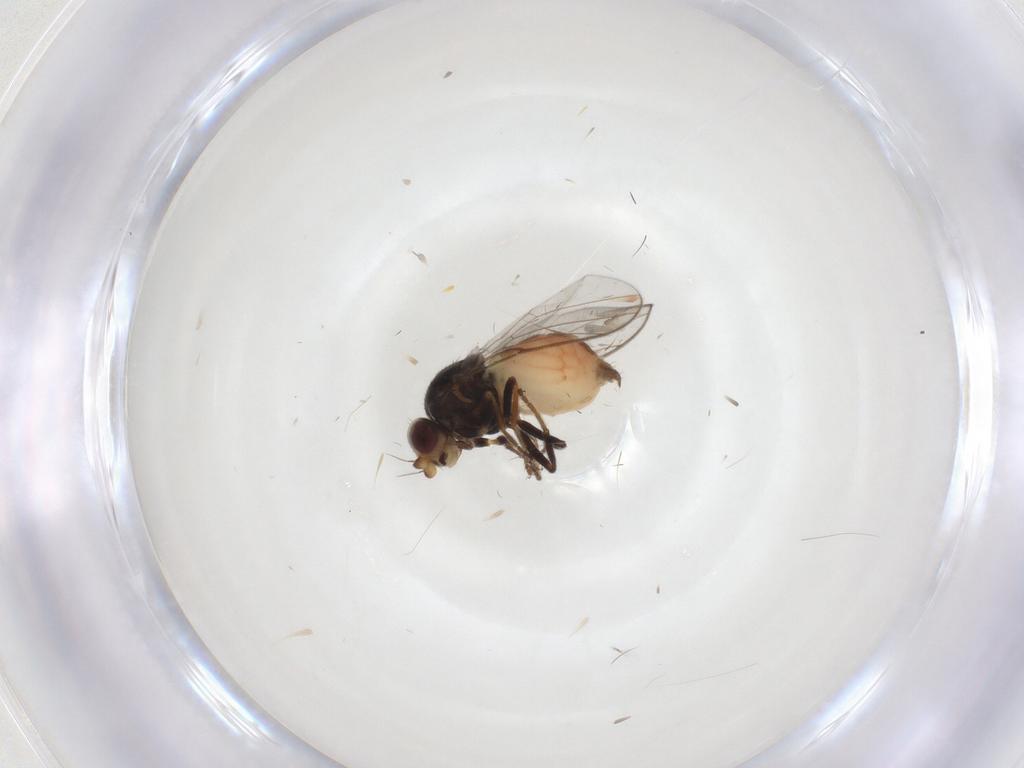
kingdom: Animalia
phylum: Arthropoda
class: Insecta
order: Diptera
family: Chloropidae
